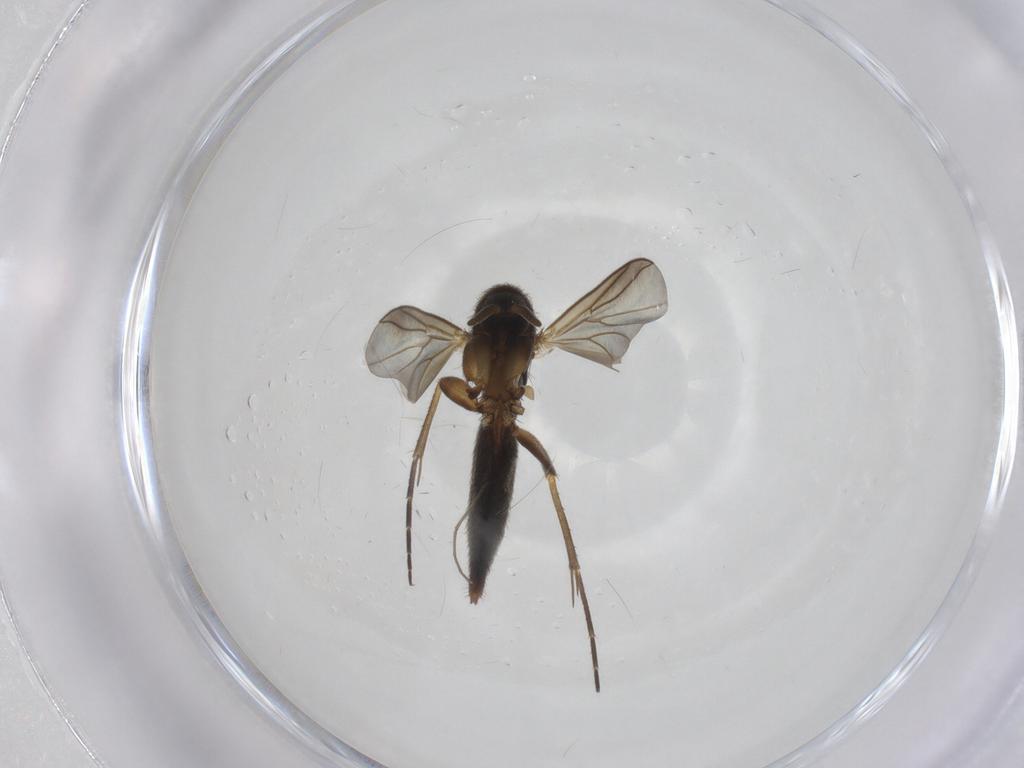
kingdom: Animalia
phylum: Arthropoda
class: Insecta
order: Diptera
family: Mycetophilidae
